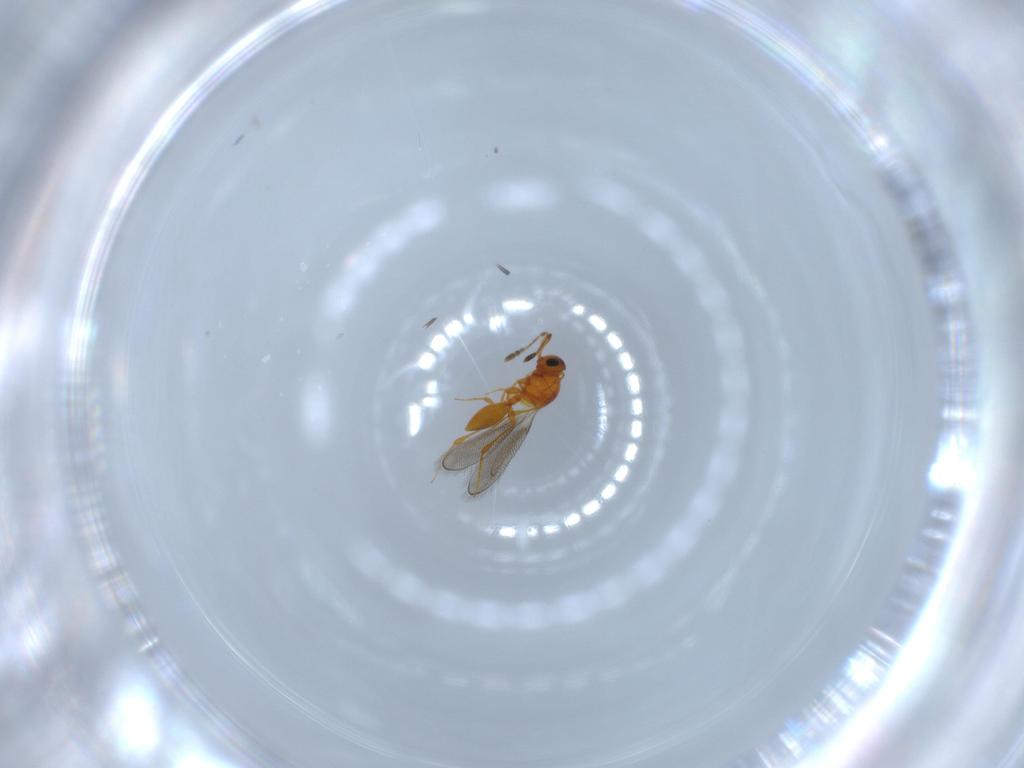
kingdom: Animalia
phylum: Arthropoda
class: Insecta
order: Hymenoptera
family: Platygastridae
